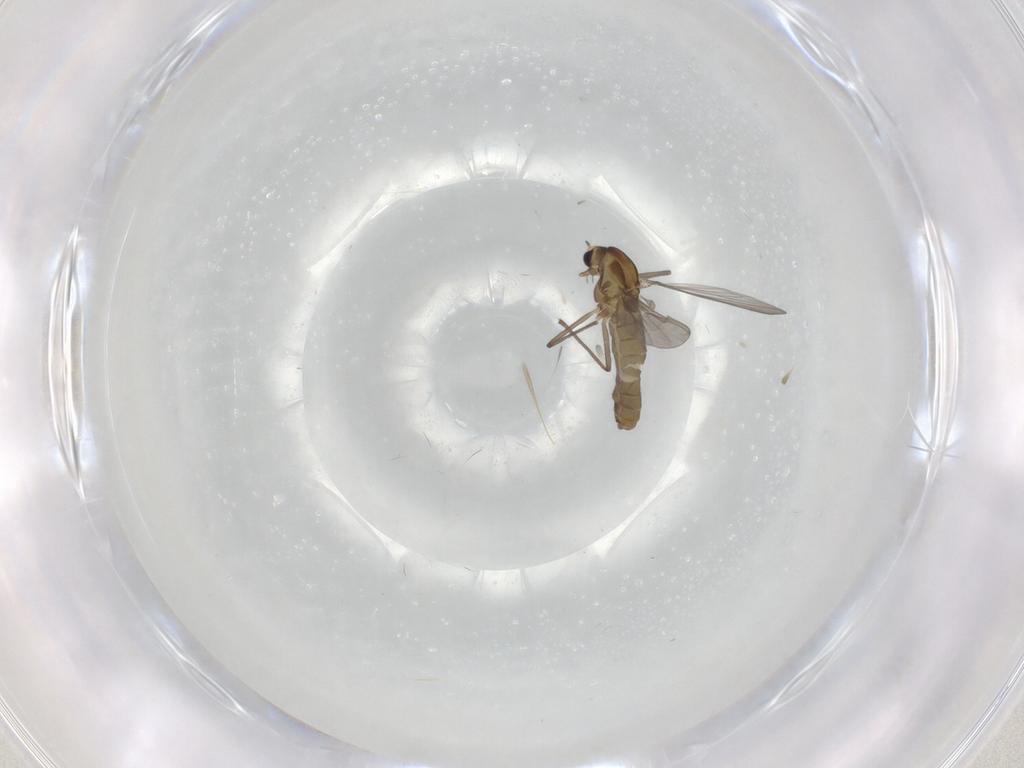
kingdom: Animalia
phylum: Arthropoda
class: Insecta
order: Diptera
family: Phoridae
